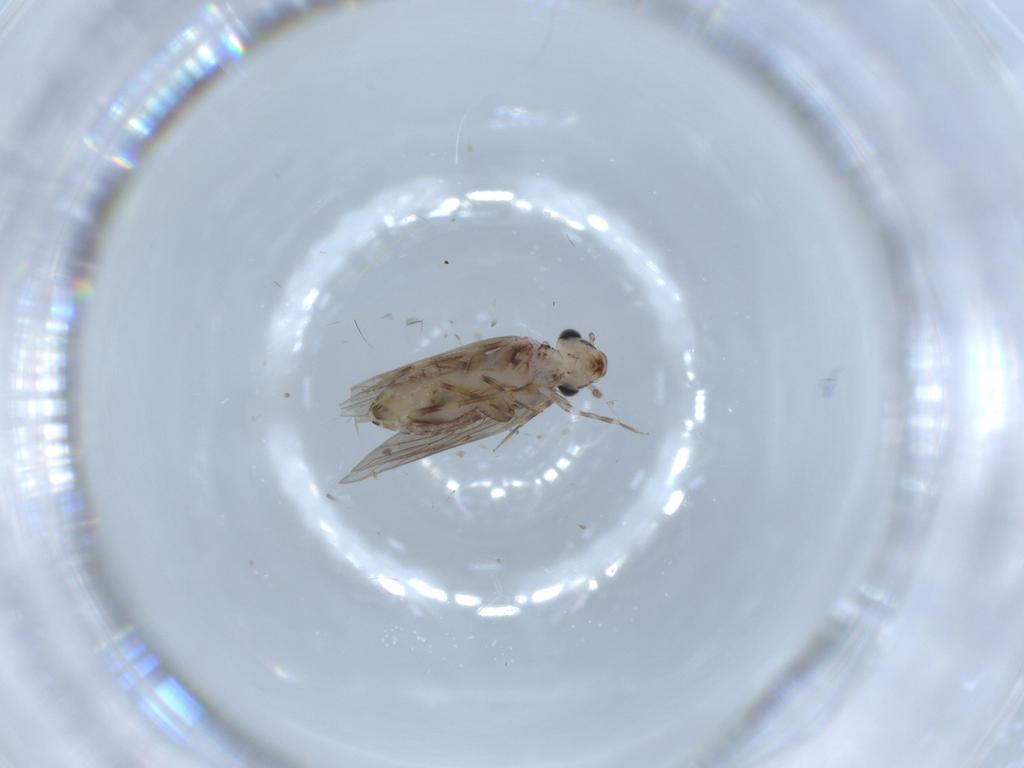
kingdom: Animalia
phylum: Arthropoda
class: Insecta
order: Psocodea
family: Lepidopsocidae
